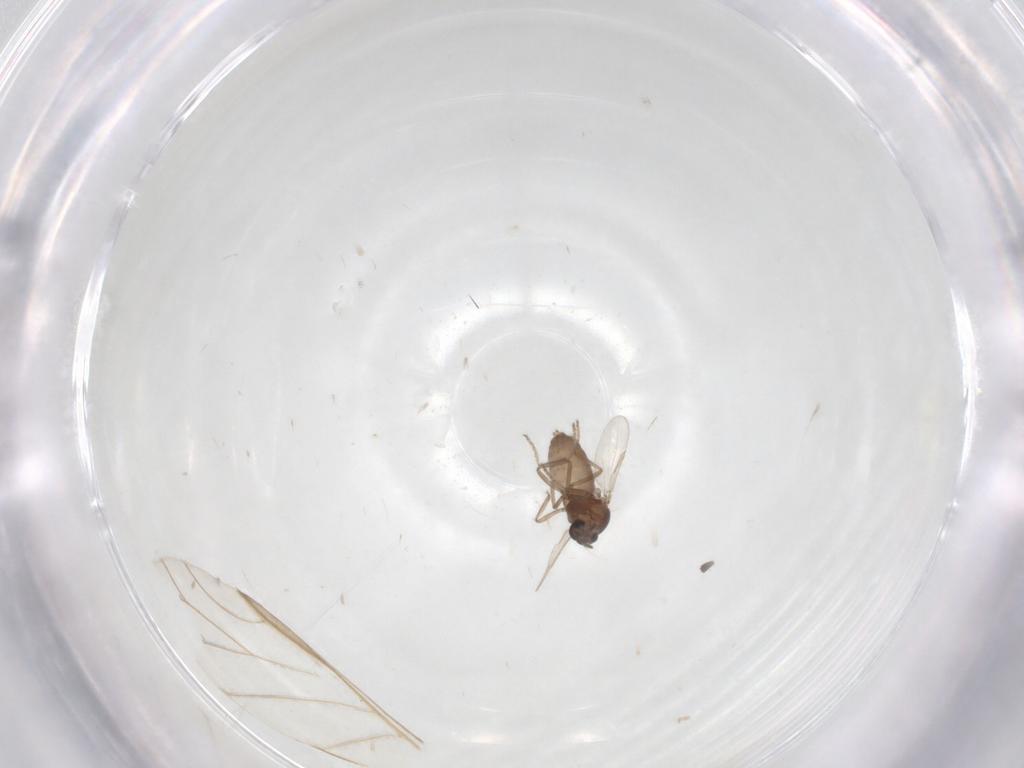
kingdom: Animalia
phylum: Arthropoda
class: Insecta
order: Diptera
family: Ceratopogonidae
